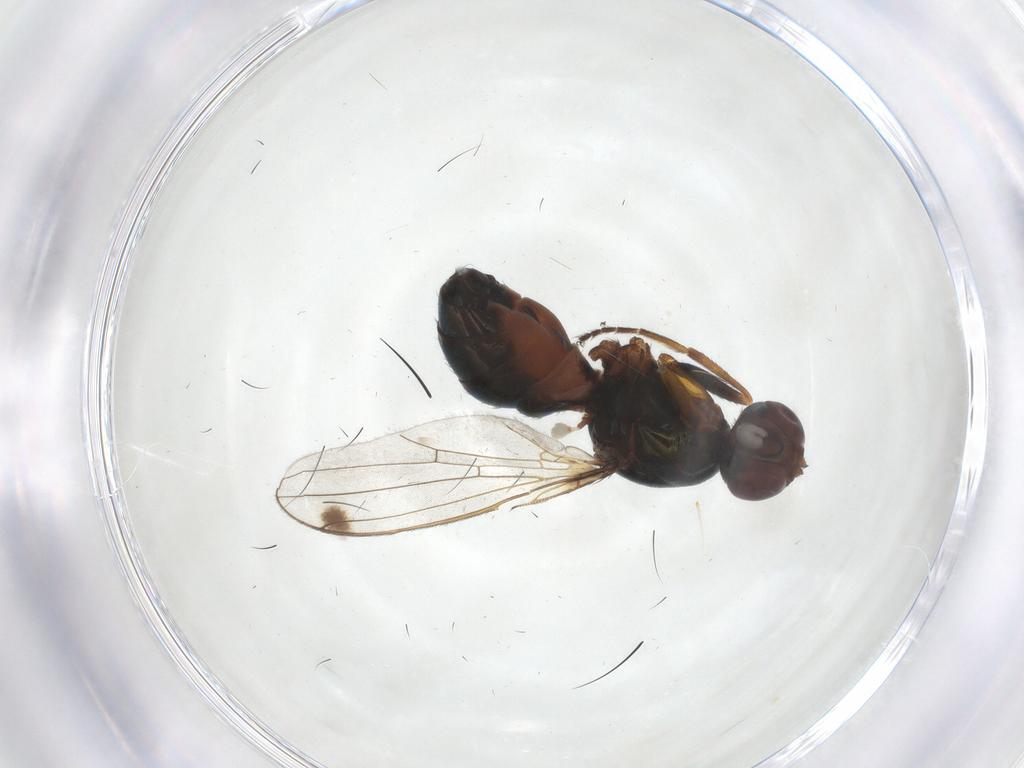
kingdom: Animalia
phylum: Arthropoda
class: Insecta
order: Diptera
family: Sepsidae
